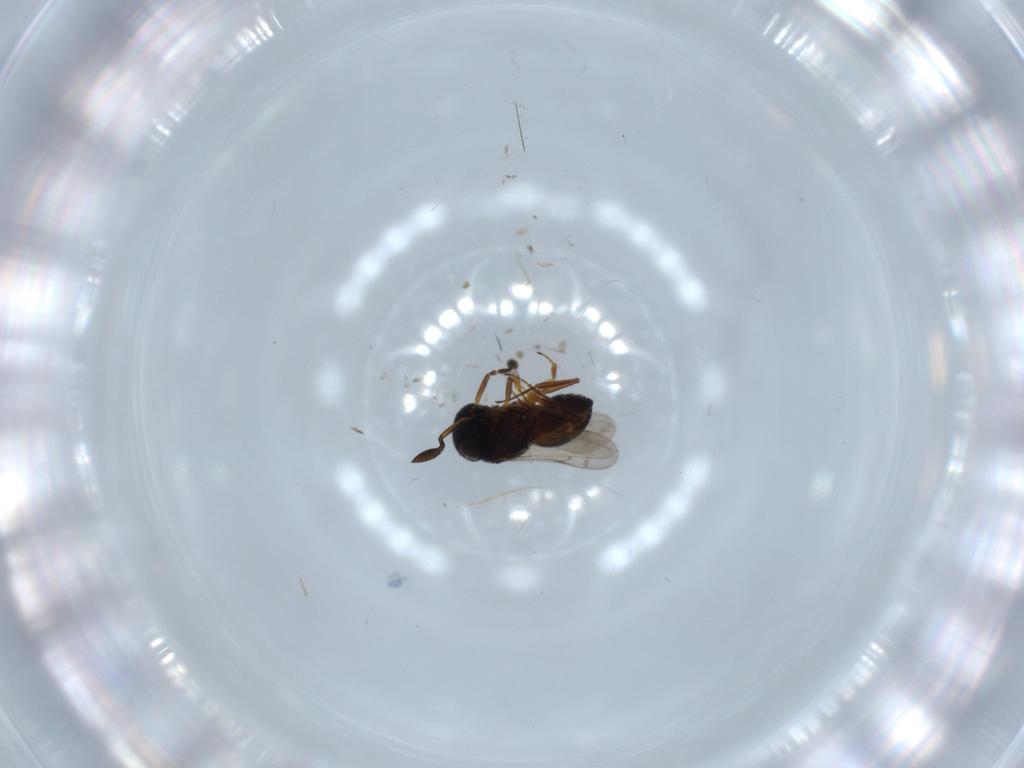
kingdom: Animalia
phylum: Arthropoda
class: Insecta
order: Hymenoptera
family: Scelionidae
